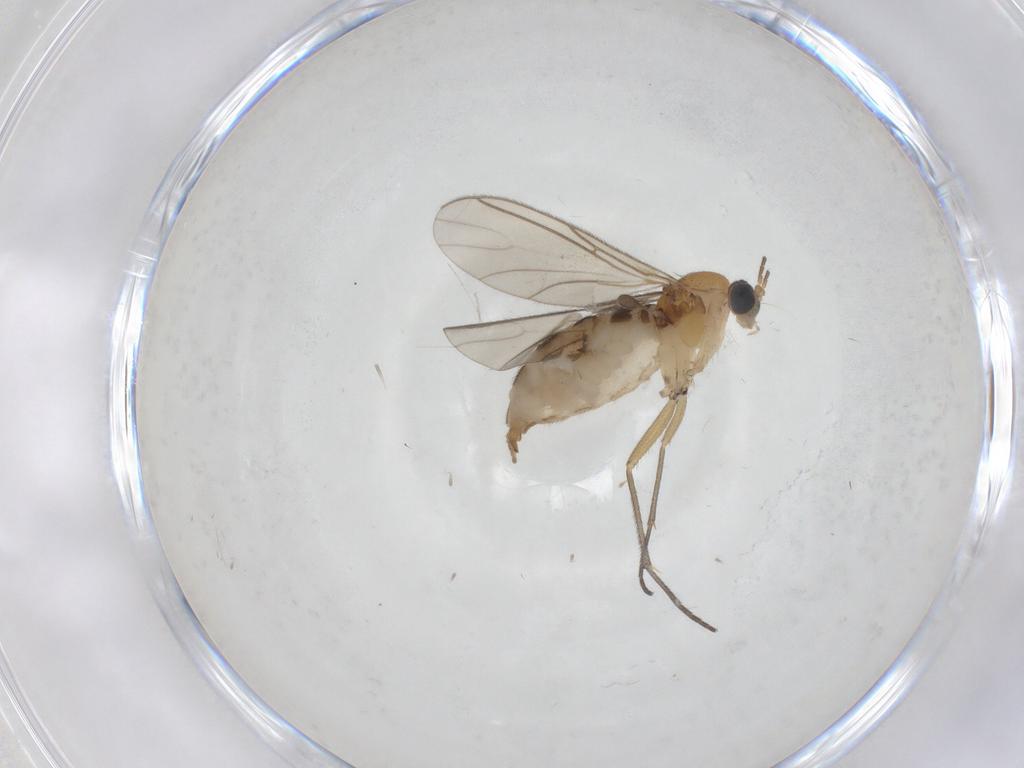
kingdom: Animalia
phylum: Arthropoda
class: Insecta
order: Diptera
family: Sciaridae
